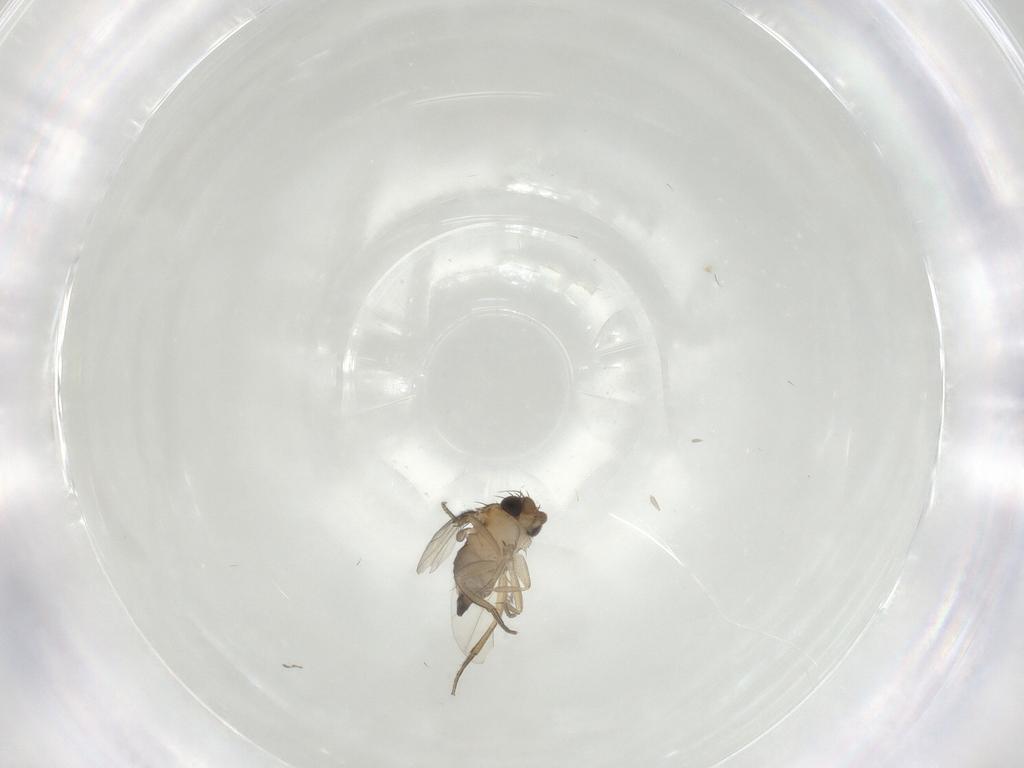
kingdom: Animalia
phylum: Arthropoda
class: Insecta
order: Diptera
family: Phoridae
